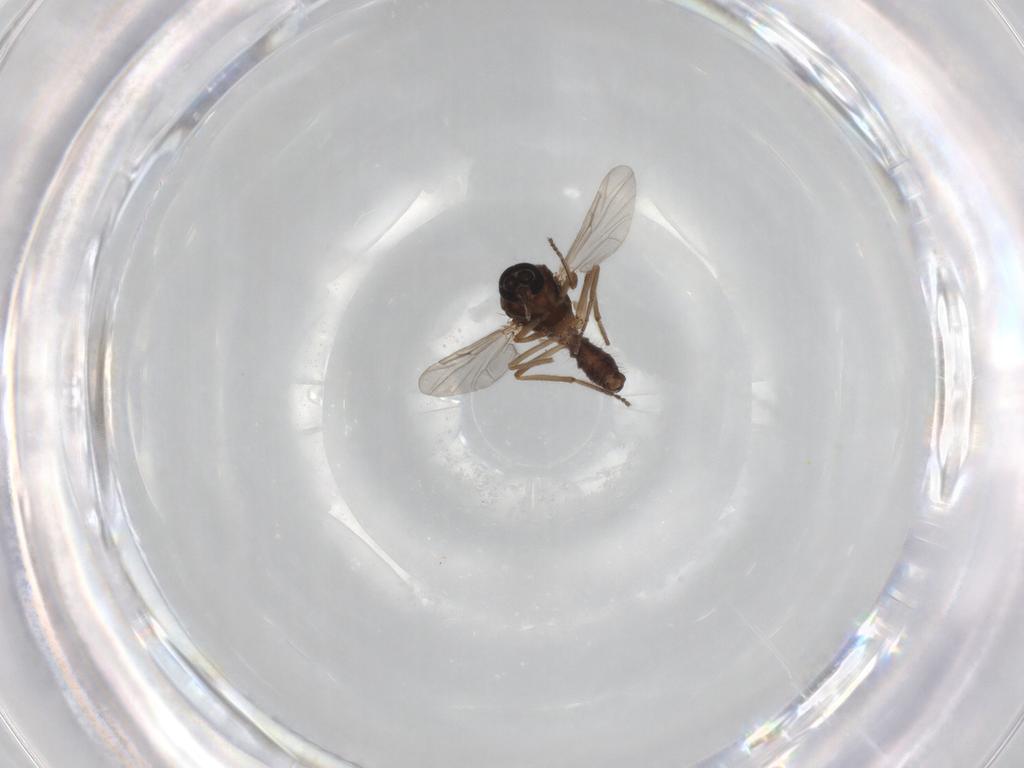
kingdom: Animalia
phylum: Arthropoda
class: Insecta
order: Diptera
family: Ceratopogonidae
